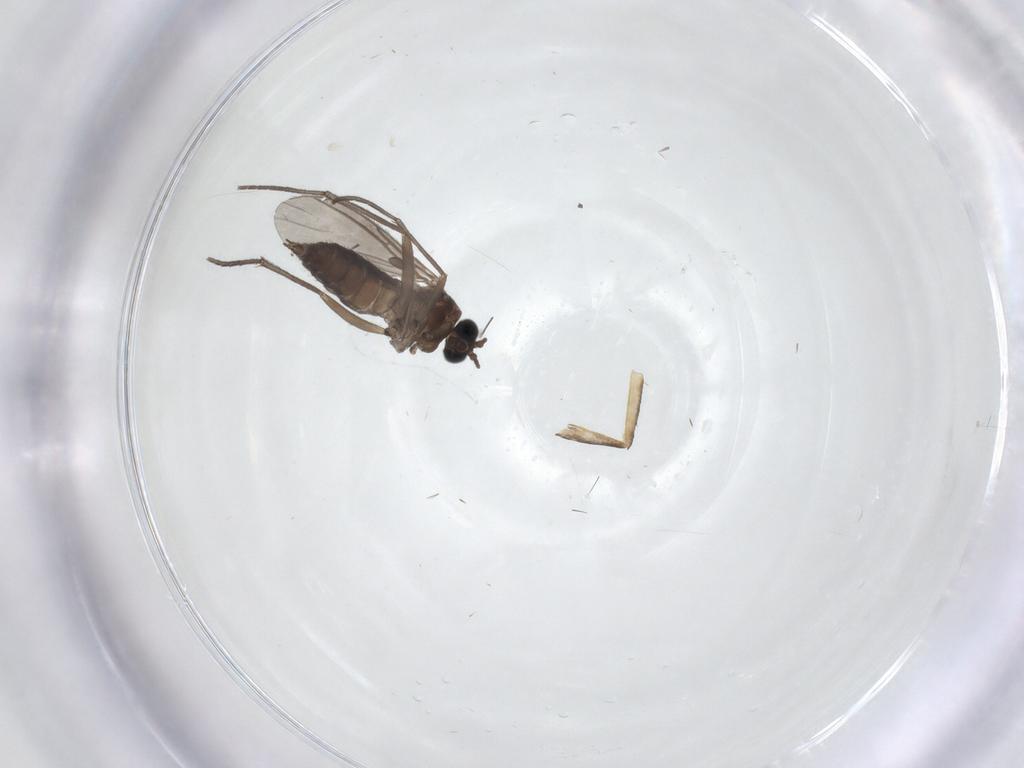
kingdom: Animalia
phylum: Arthropoda
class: Insecta
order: Diptera
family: Sciaridae
